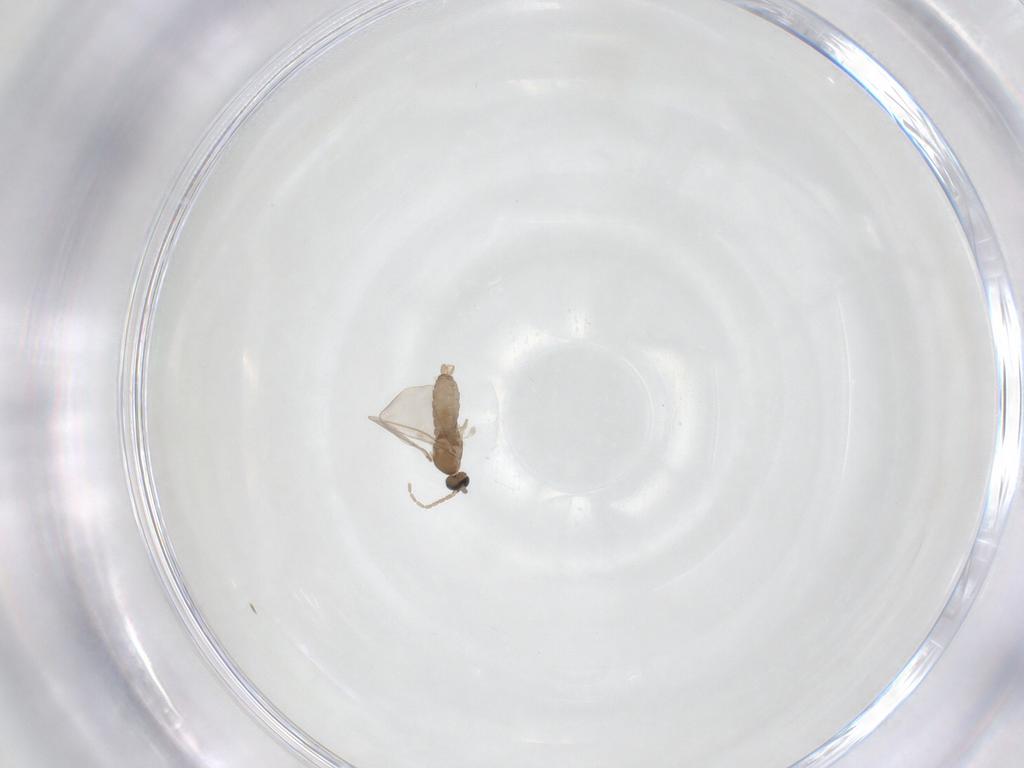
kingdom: Animalia
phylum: Arthropoda
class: Insecta
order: Diptera
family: Cecidomyiidae
